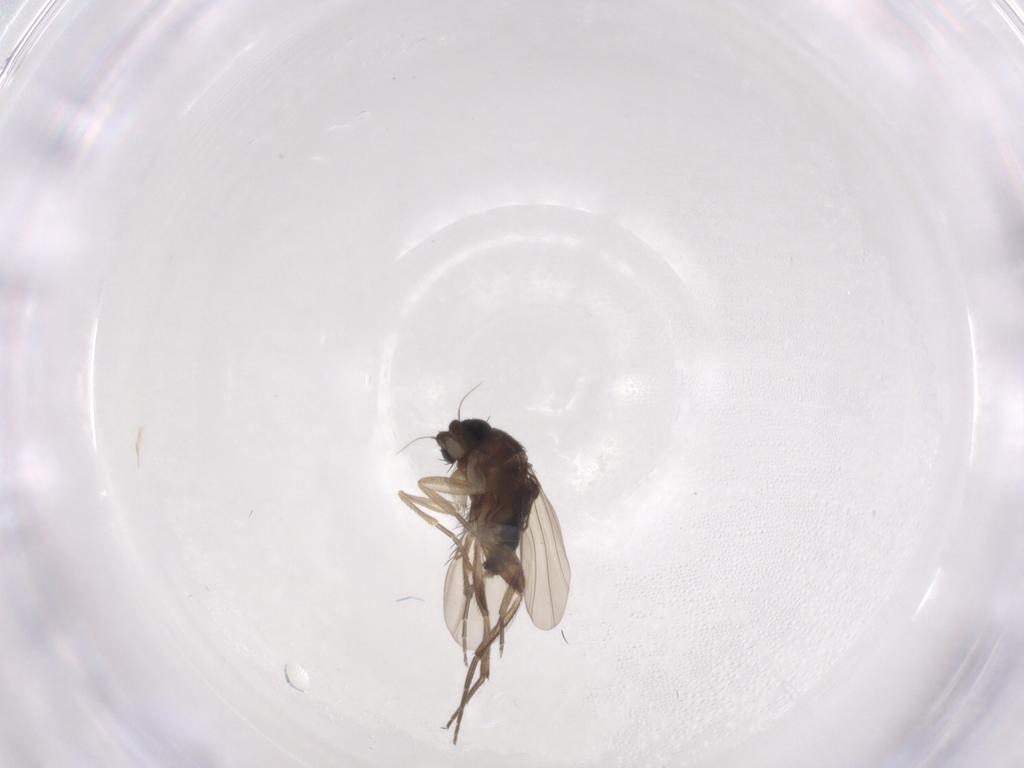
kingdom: Animalia
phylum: Arthropoda
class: Insecta
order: Diptera
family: Phoridae
